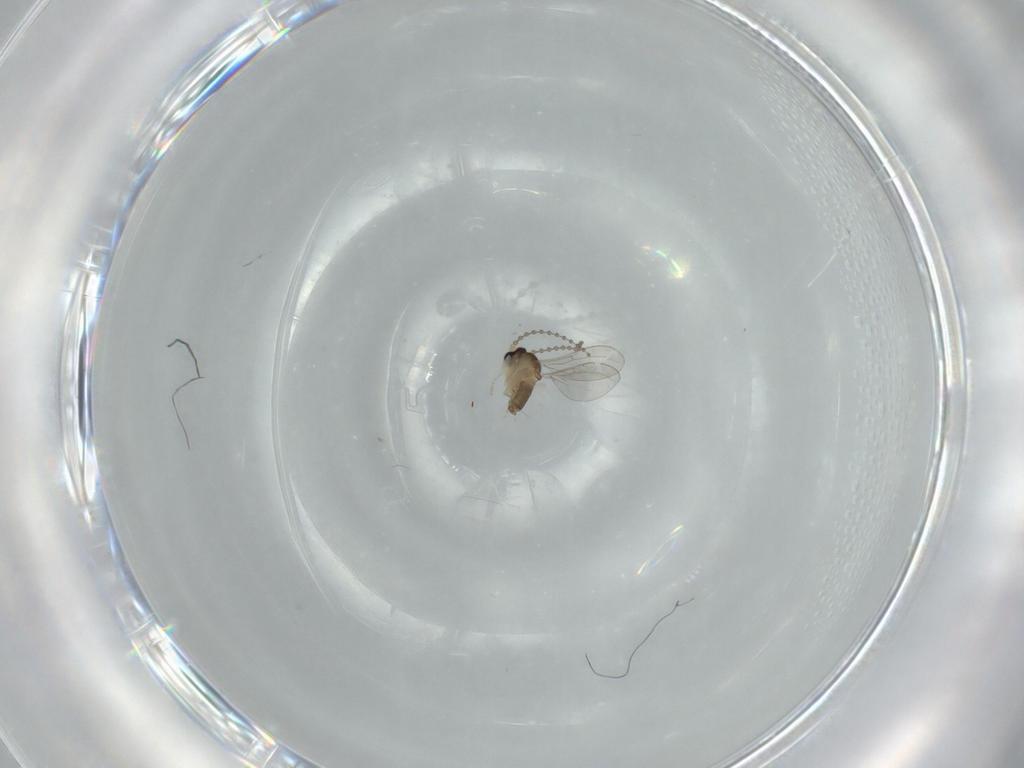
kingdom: Animalia
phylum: Arthropoda
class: Insecta
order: Diptera
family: Cecidomyiidae
